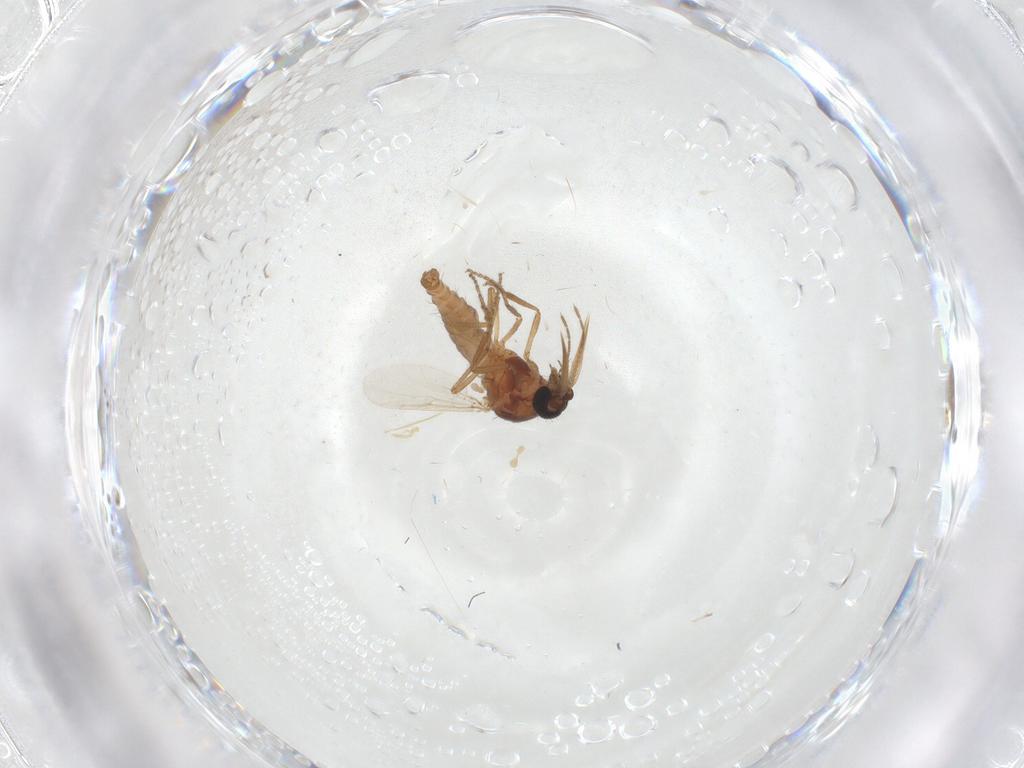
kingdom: Animalia
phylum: Arthropoda
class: Insecta
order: Diptera
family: Ceratopogonidae
